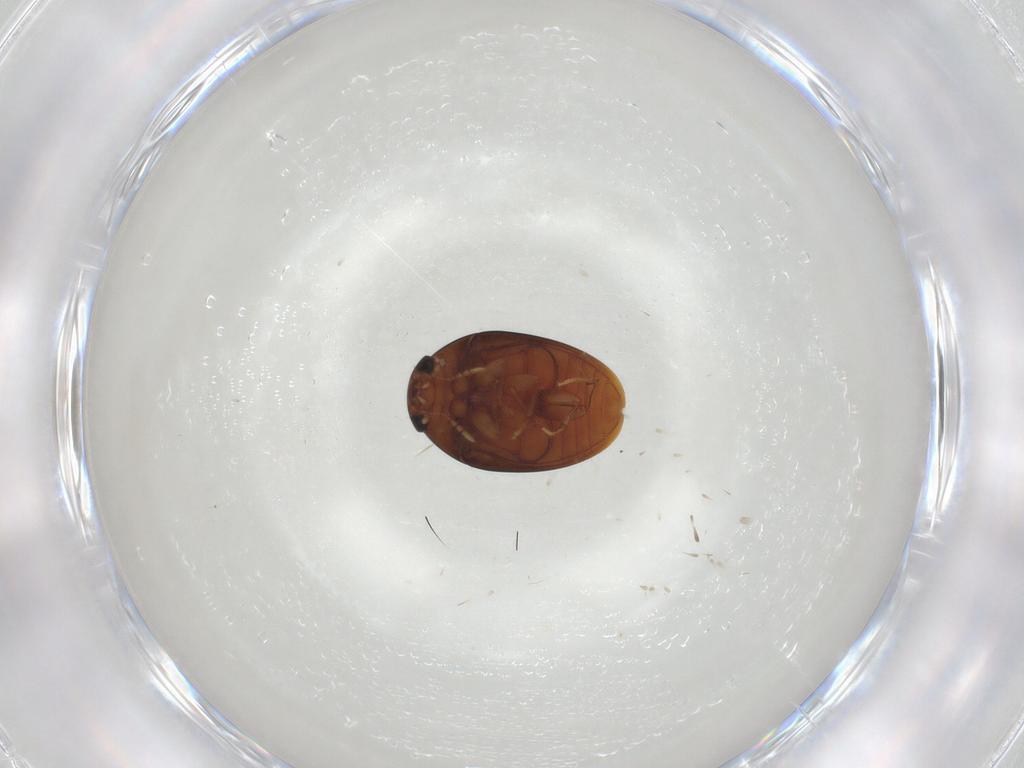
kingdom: Animalia
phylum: Arthropoda
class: Insecta
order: Coleoptera
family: Phalacridae
